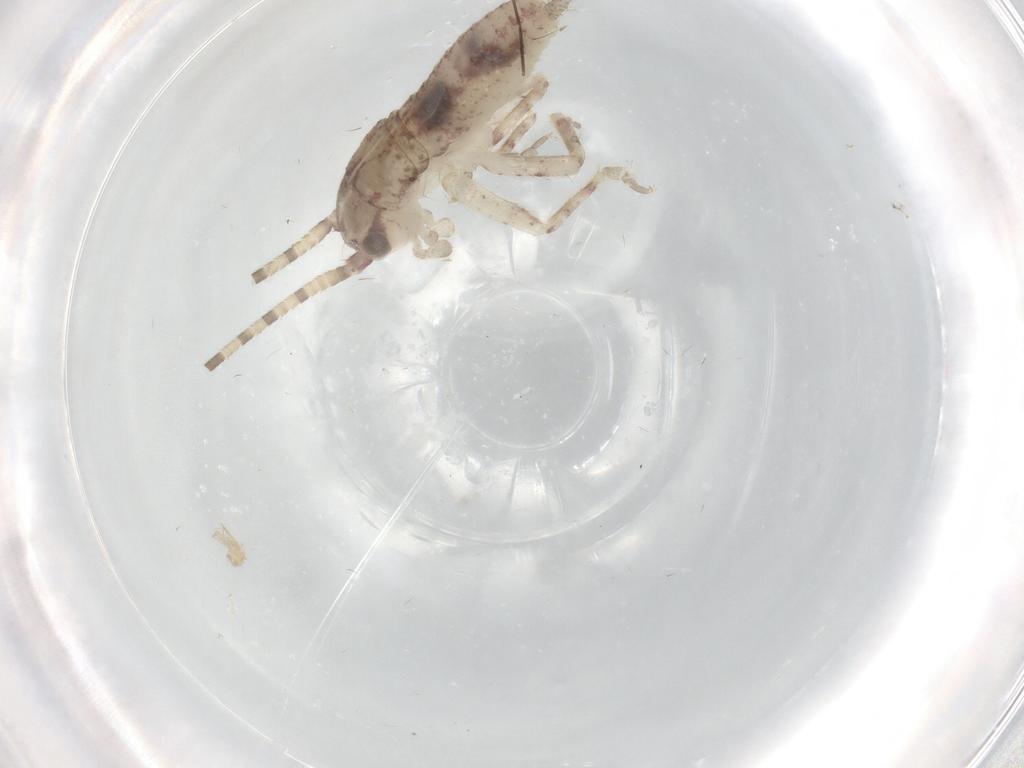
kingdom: Animalia
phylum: Arthropoda
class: Insecta
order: Orthoptera
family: Gryllidae
